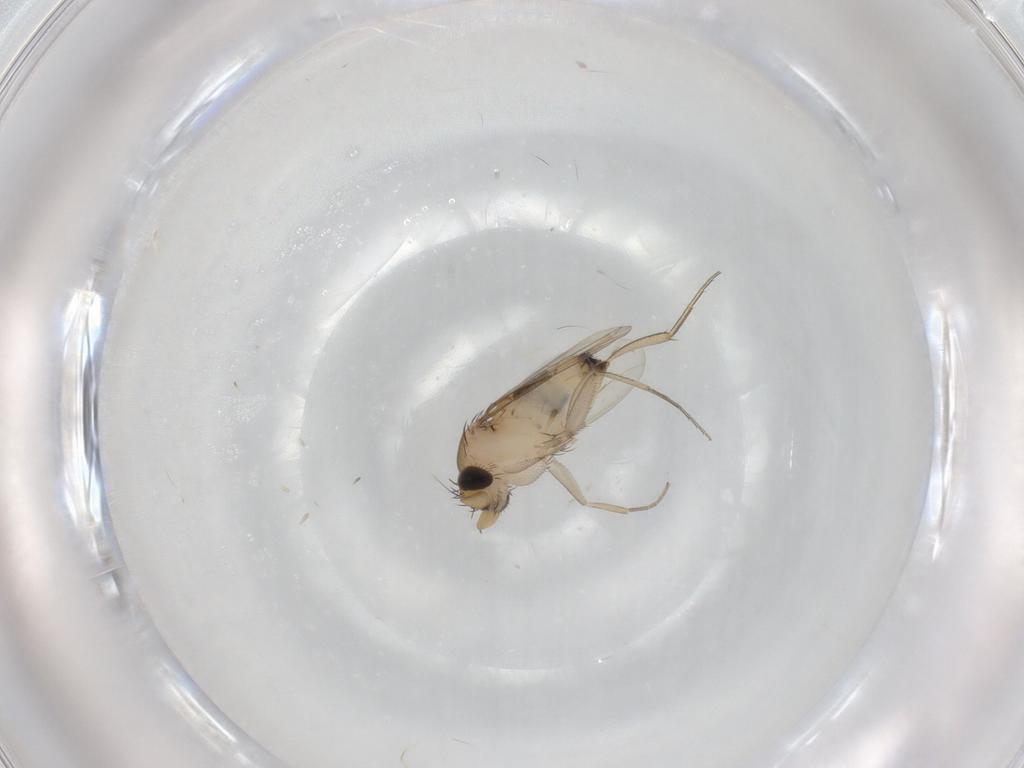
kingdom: Animalia
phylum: Arthropoda
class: Insecta
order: Diptera
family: Phoridae
